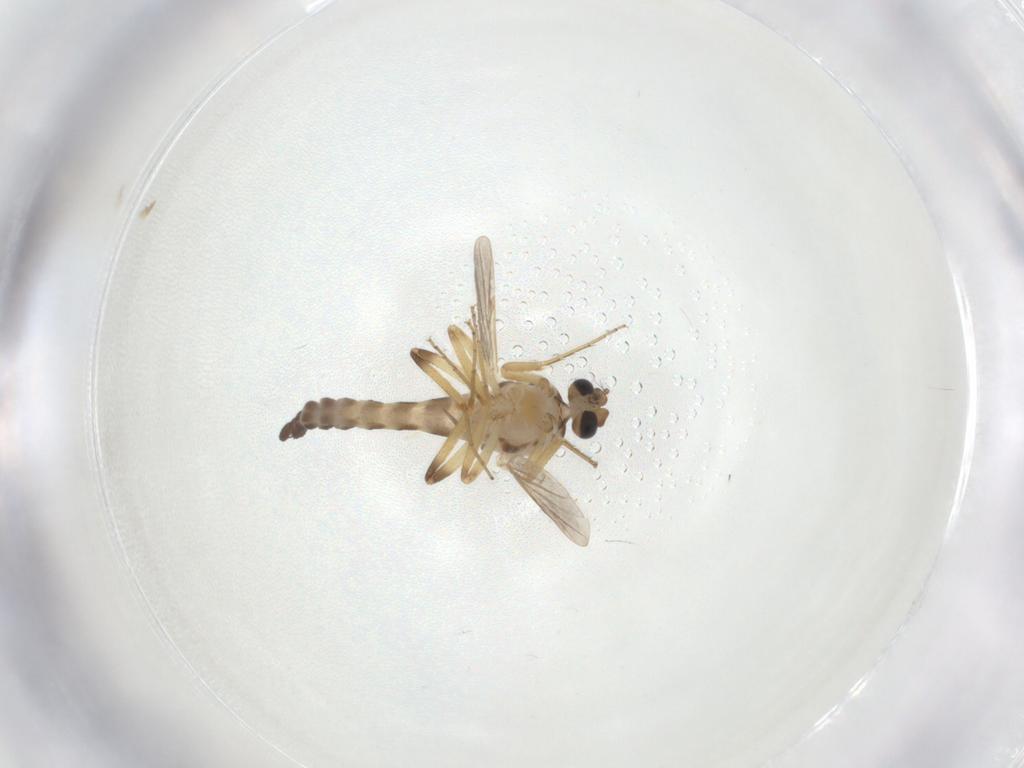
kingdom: Animalia
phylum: Arthropoda
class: Insecta
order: Diptera
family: Ceratopogonidae
